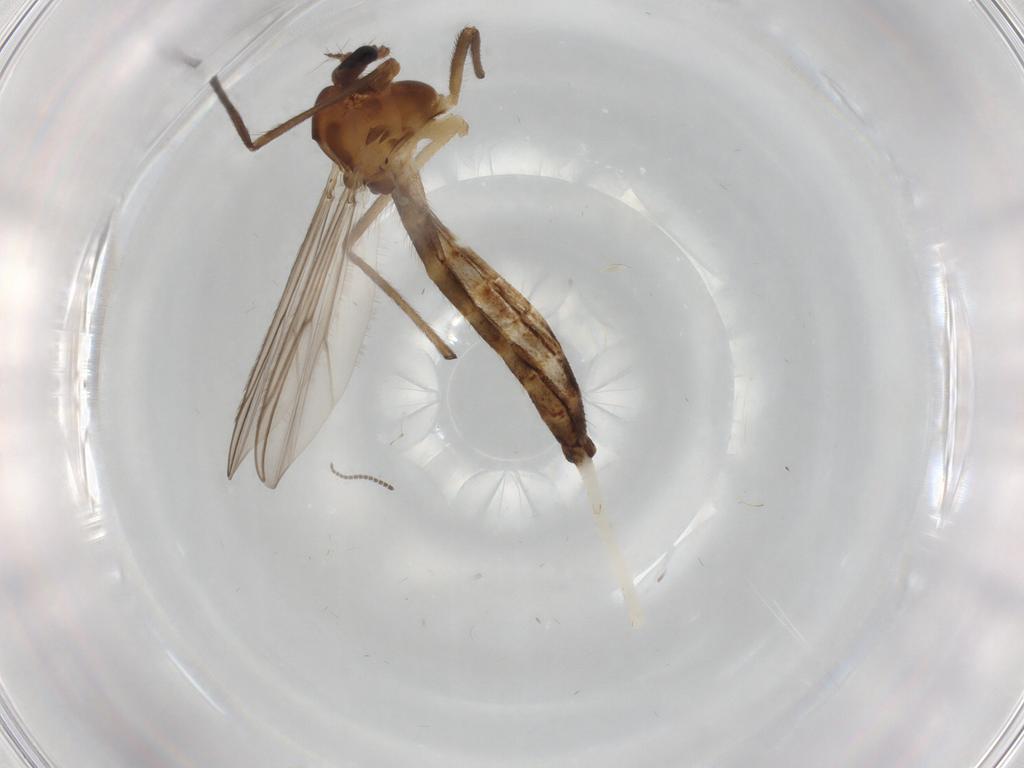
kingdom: Animalia
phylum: Arthropoda
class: Insecta
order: Diptera
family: Chironomidae
